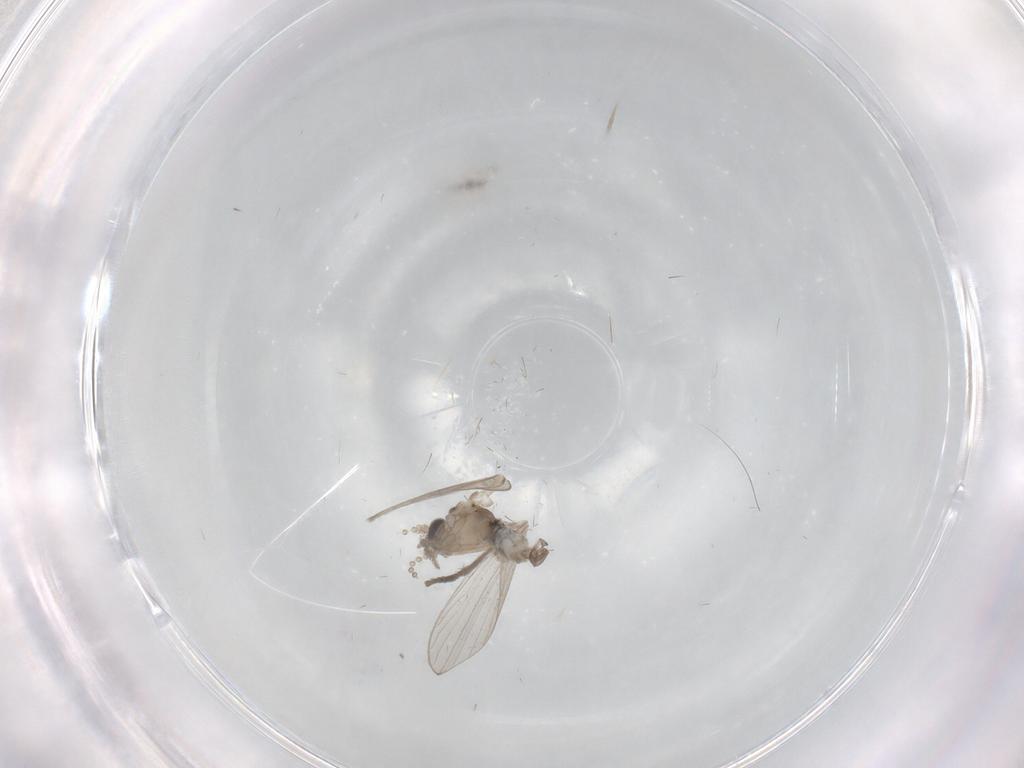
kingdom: Animalia
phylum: Arthropoda
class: Insecta
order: Diptera
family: Psychodidae
